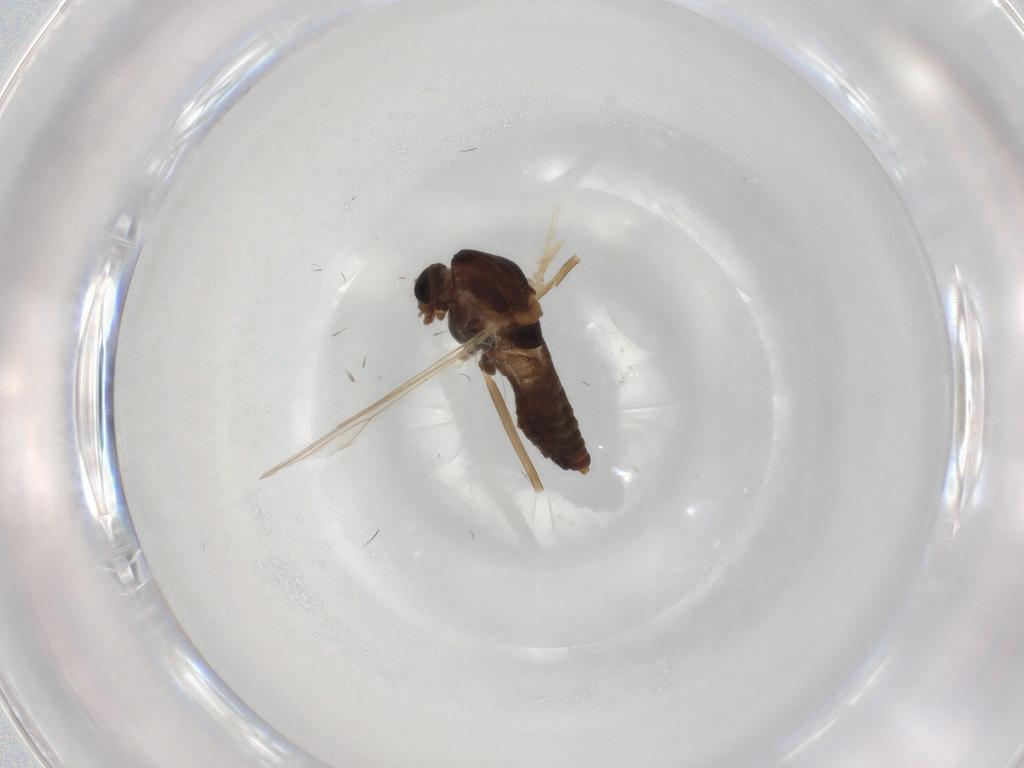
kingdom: Animalia
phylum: Arthropoda
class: Insecta
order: Diptera
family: Chironomidae
